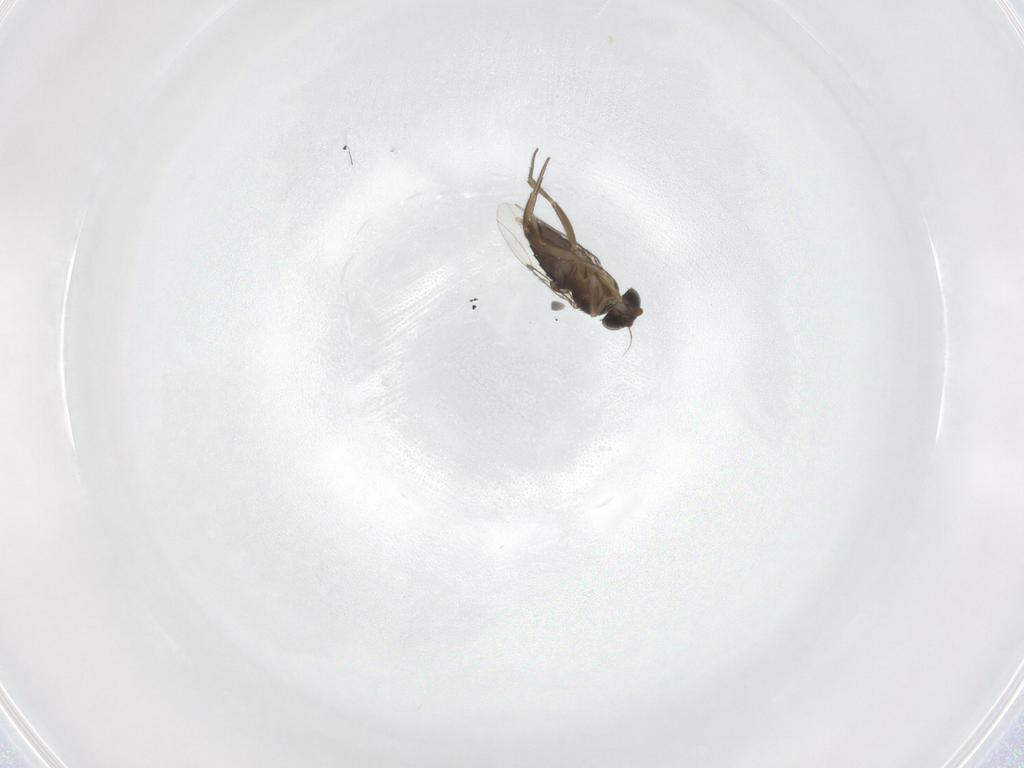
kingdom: Animalia
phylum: Arthropoda
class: Insecta
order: Diptera
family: Phoridae
